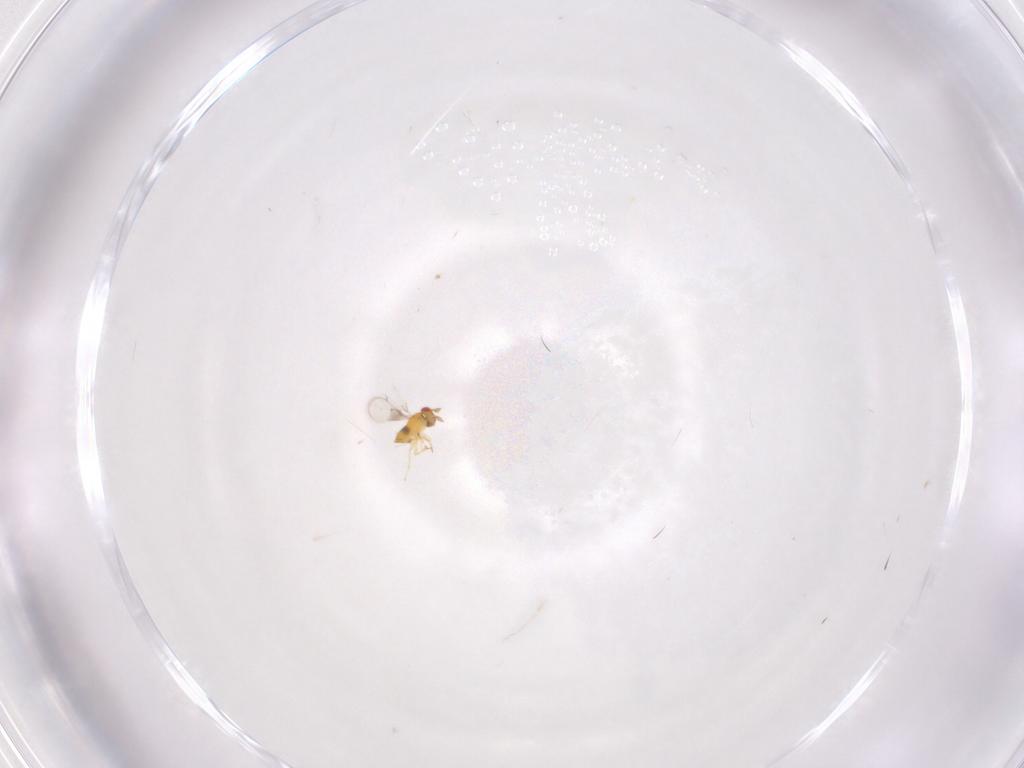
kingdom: Animalia
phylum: Arthropoda
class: Insecta
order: Hymenoptera
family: Trichogrammatidae
